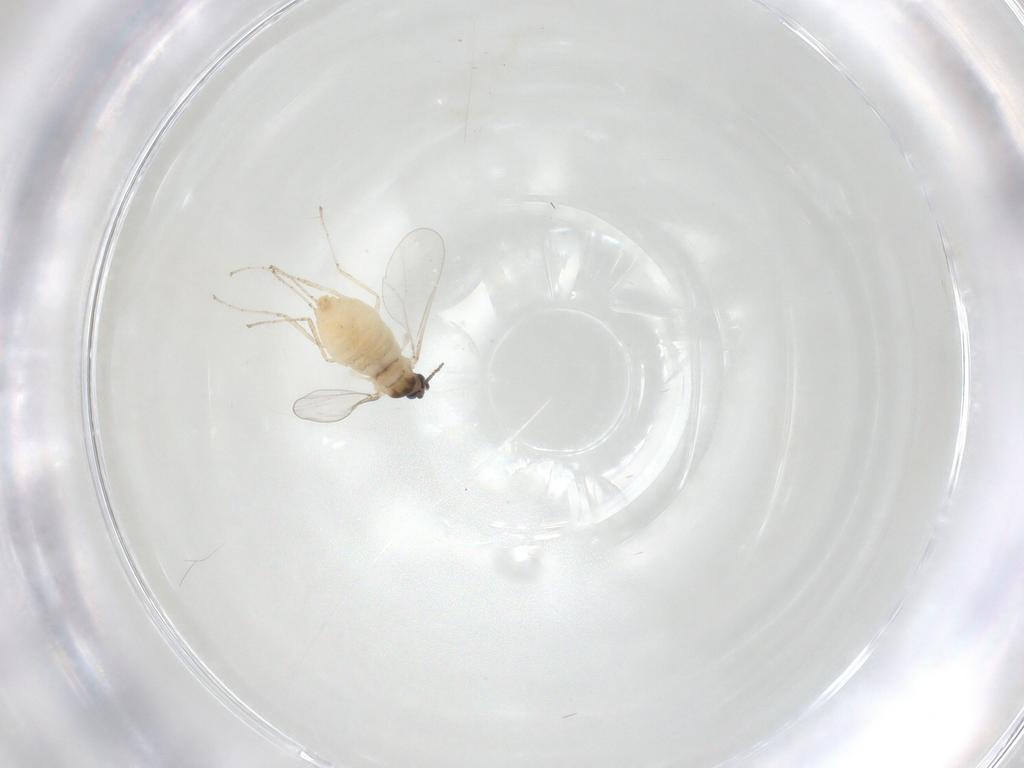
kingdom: Animalia
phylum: Arthropoda
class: Insecta
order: Diptera
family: Cecidomyiidae
